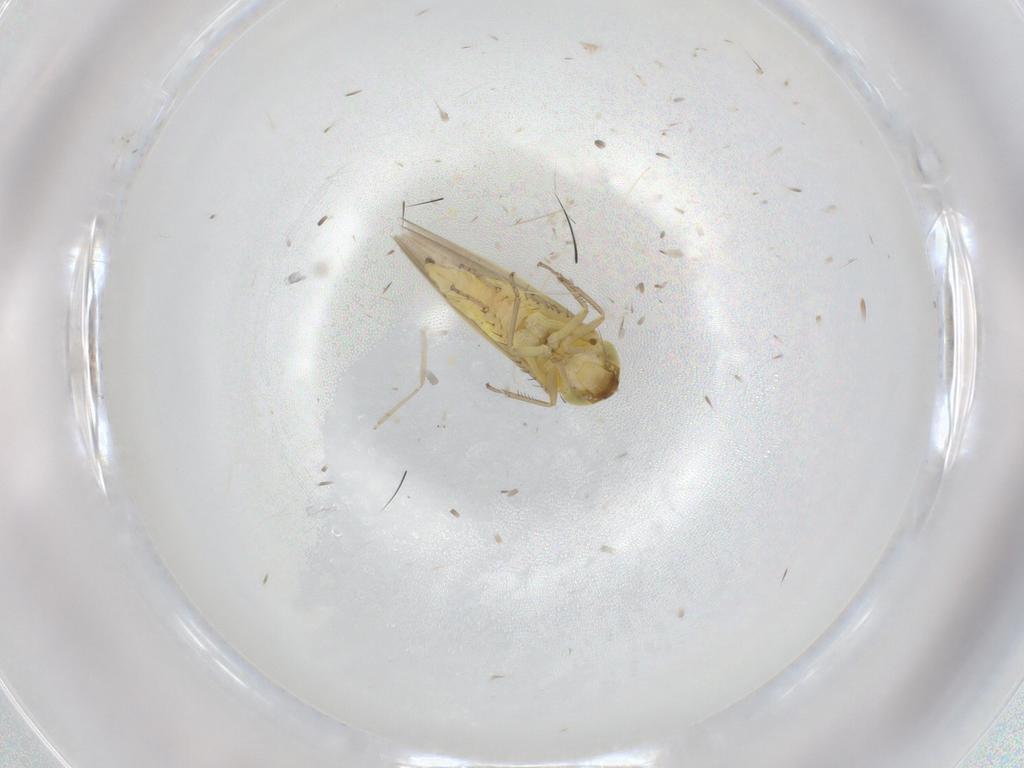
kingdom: Animalia
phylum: Arthropoda
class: Insecta
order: Hemiptera
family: Cicadellidae
